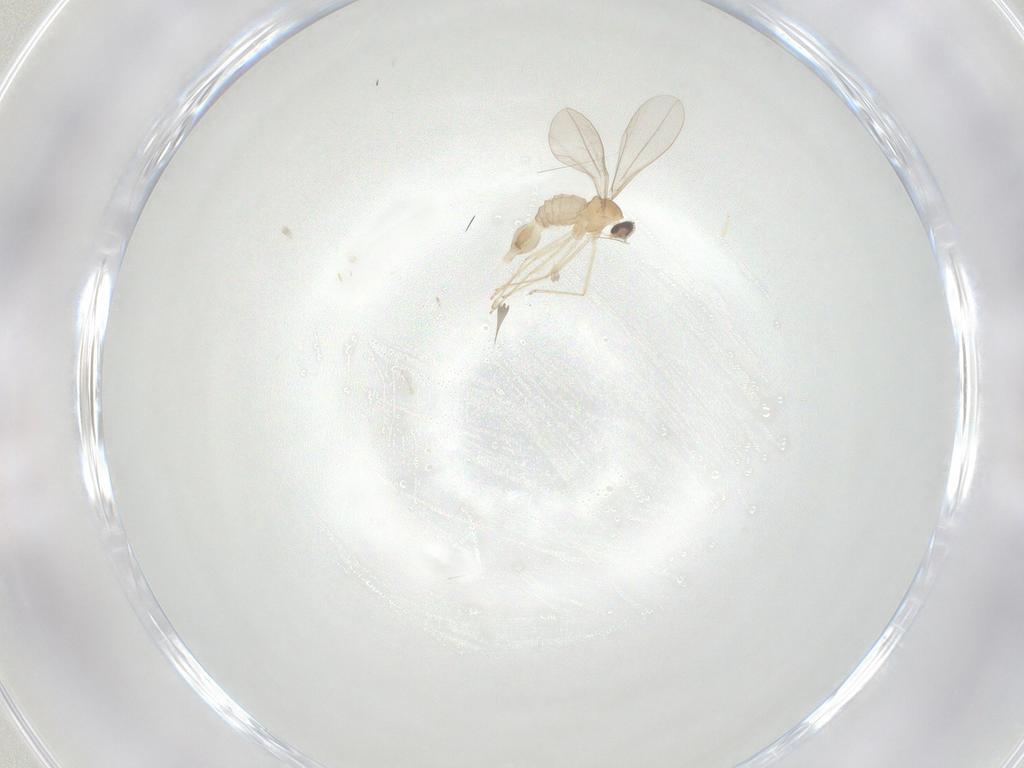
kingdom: Animalia
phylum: Arthropoda
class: Insecta
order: Diptera
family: Cecidomyiidae
